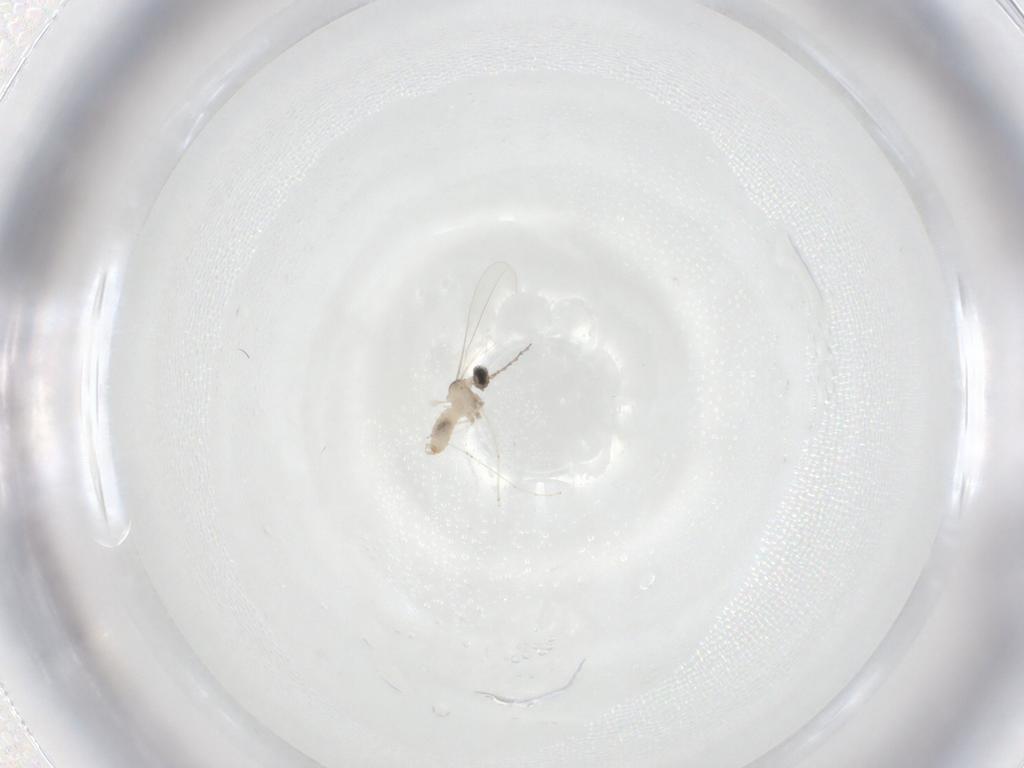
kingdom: Animalia
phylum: Arthropoda
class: Insecta
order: Diptera
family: Cecidomyiidae
